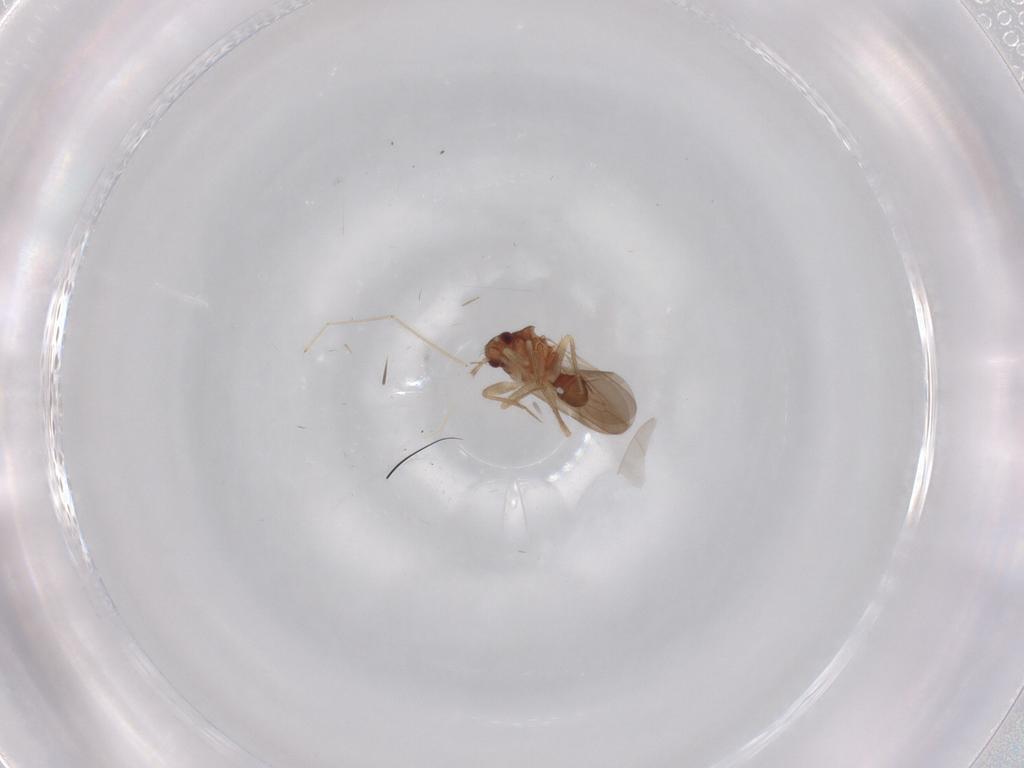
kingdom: Animalia
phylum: Arthropoda
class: Insecta
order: Hemiptera
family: Ceratocombidae
